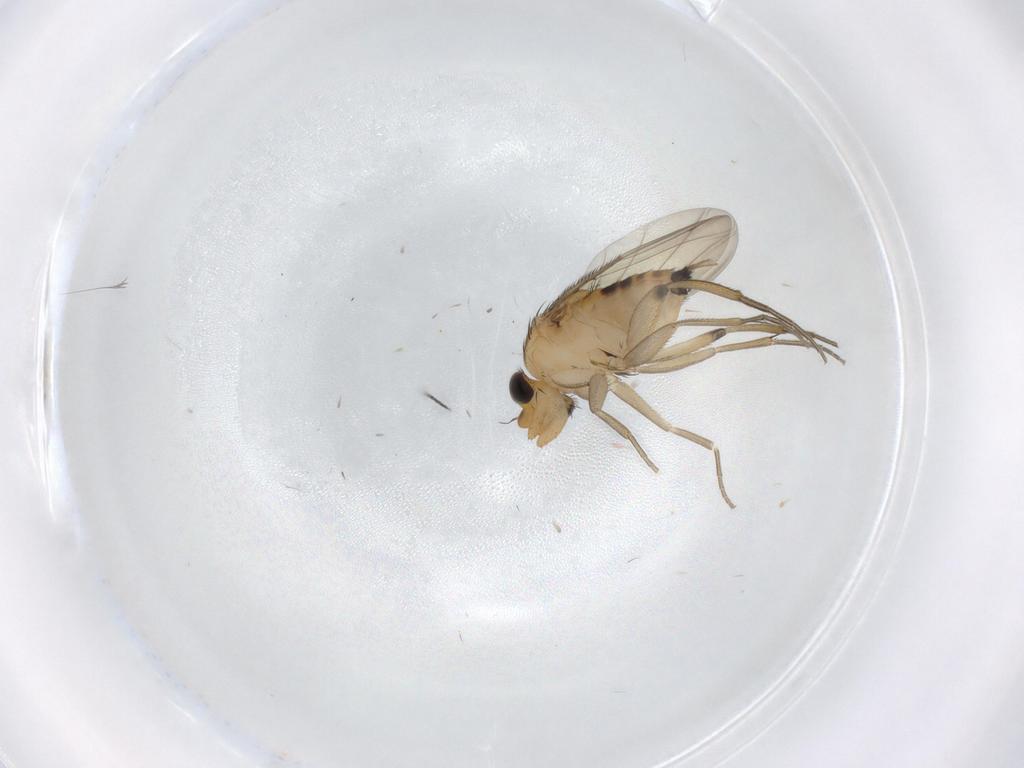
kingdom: Animalia
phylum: Arthropoda
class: Insecta
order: Diptera
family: Phoridae
